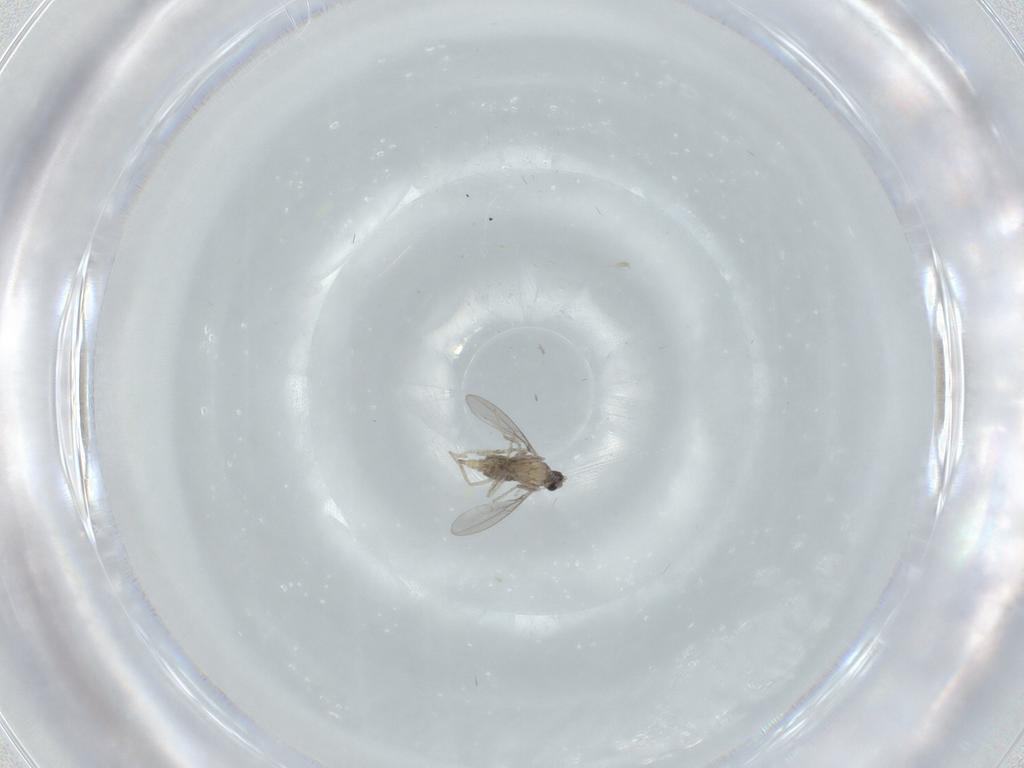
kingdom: Animalia
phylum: Arthropoda
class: Insecta
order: Diptera
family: Cecidomyiidae
